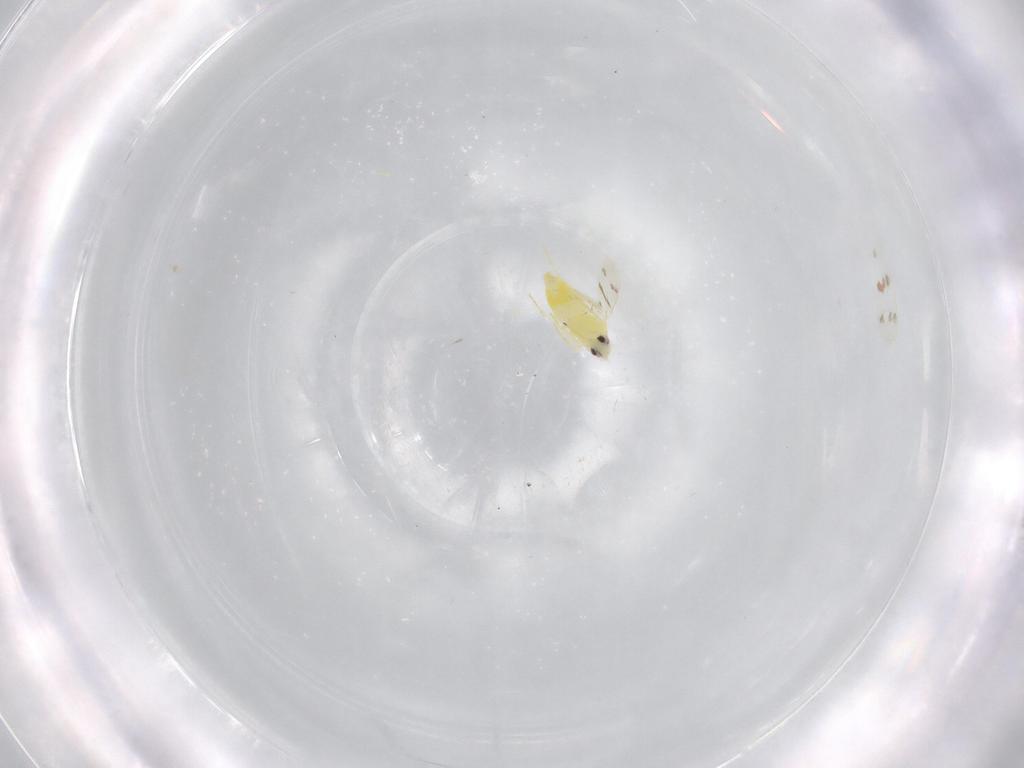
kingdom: Animalia
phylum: Arthropoda
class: Insecta
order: Hemiptera
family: Aleyrodidae
